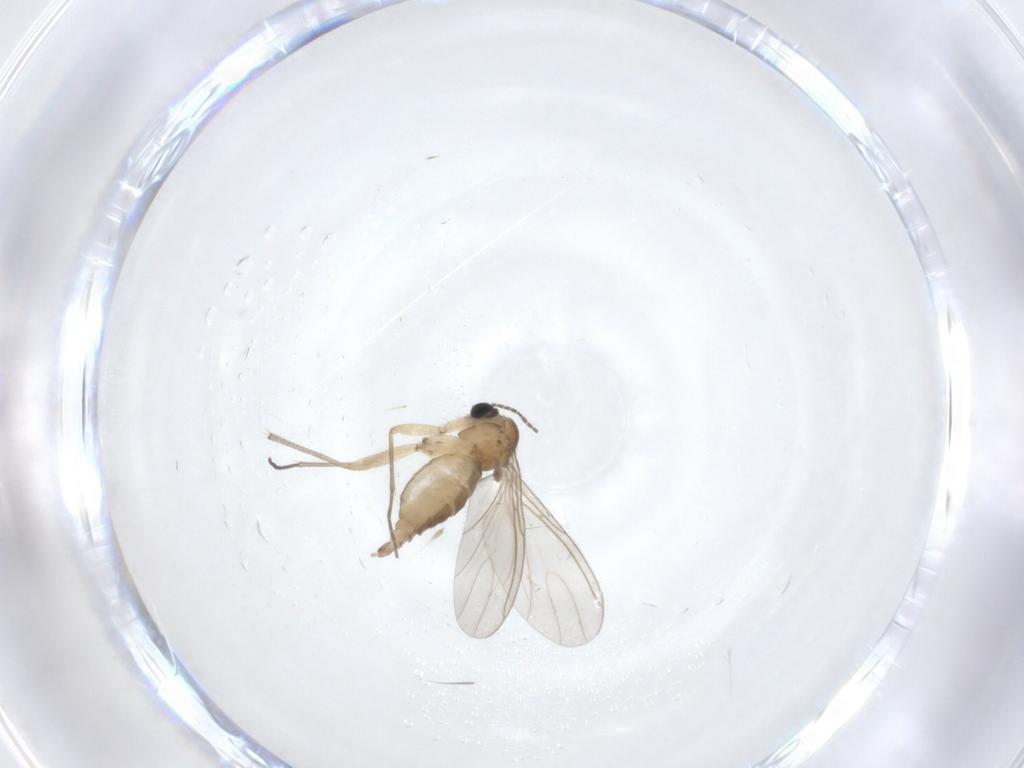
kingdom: Animalia
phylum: Arthropoda
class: Insecta
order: Diptera
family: Sciaridae
